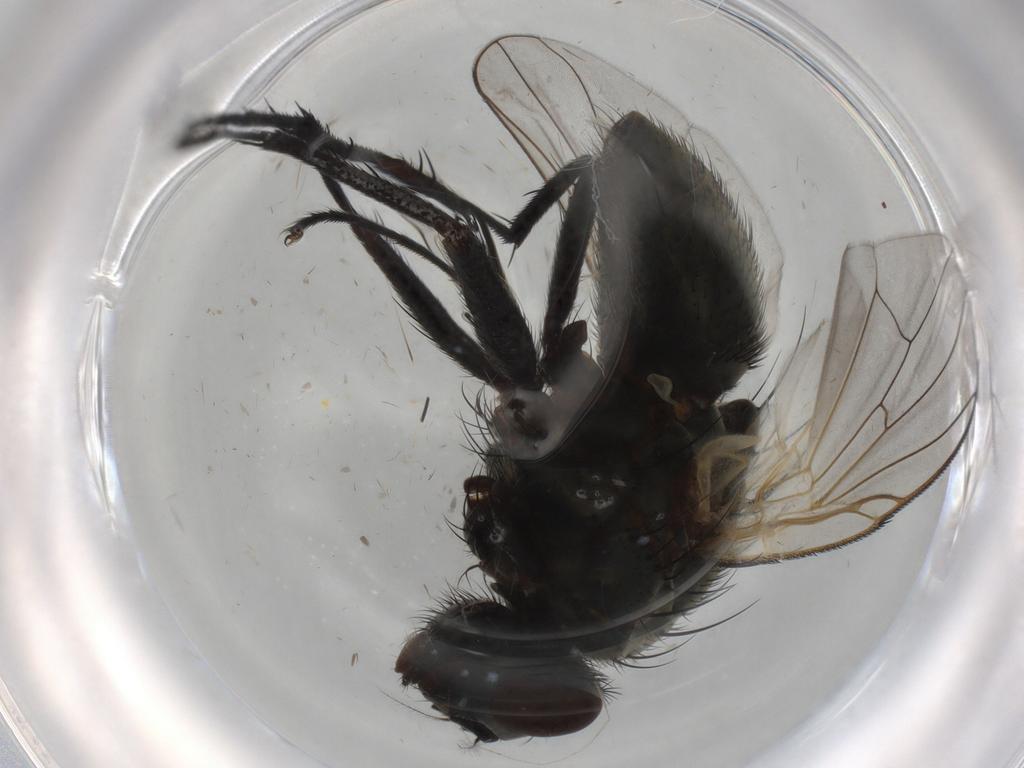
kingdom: Animalia
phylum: Arthropoda
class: Insecta
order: Diptera
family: Muscidae
